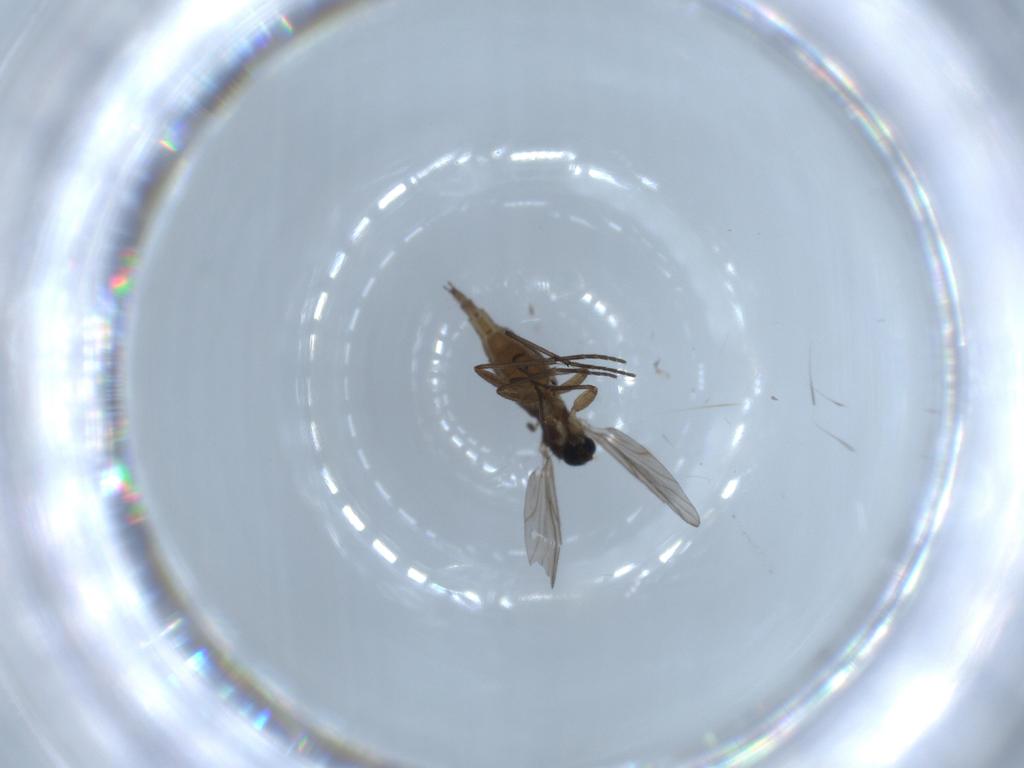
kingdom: Animalia
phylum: Arthropoda
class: Insecta
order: Diptera
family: Sciaridae
